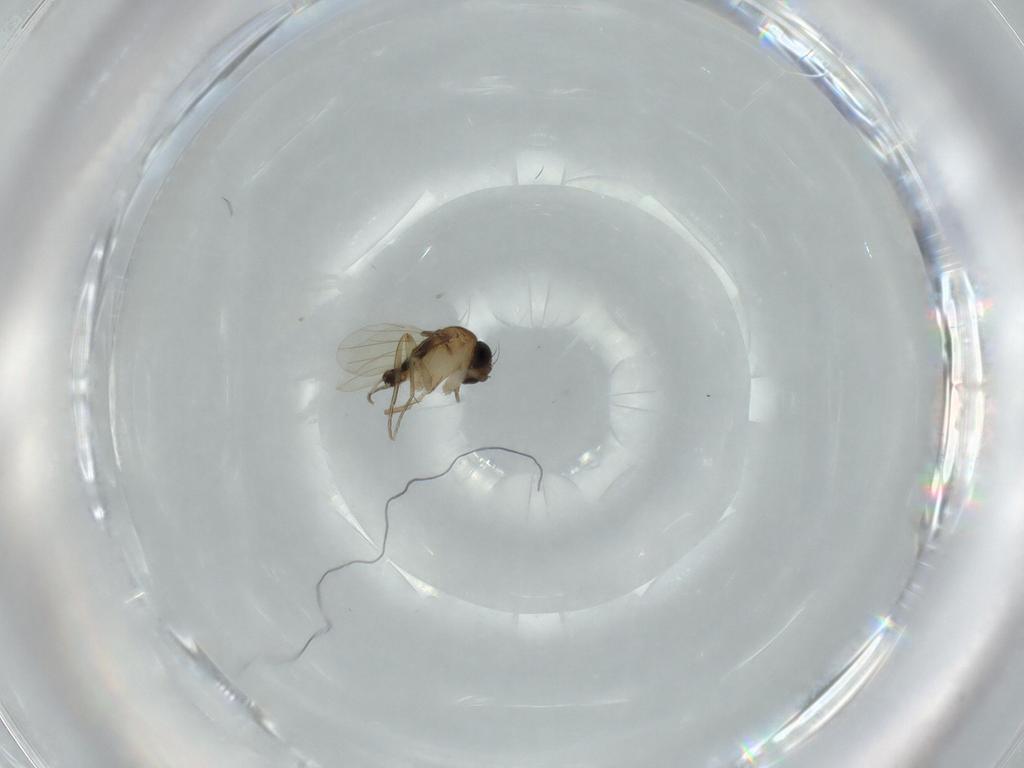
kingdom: Animalia
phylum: Arthropoda
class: Insecta
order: Diptera
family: Phoridae
